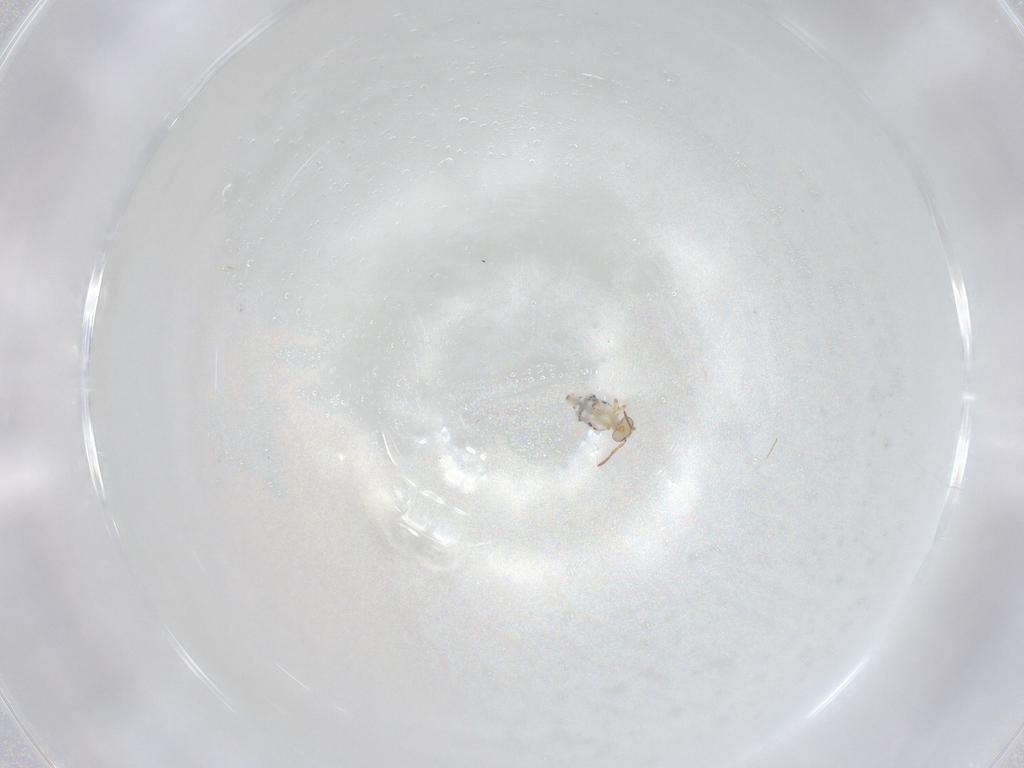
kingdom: Animalia
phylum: Arthropoda
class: Collembola
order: Symphypleona
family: Bourletiellidae
